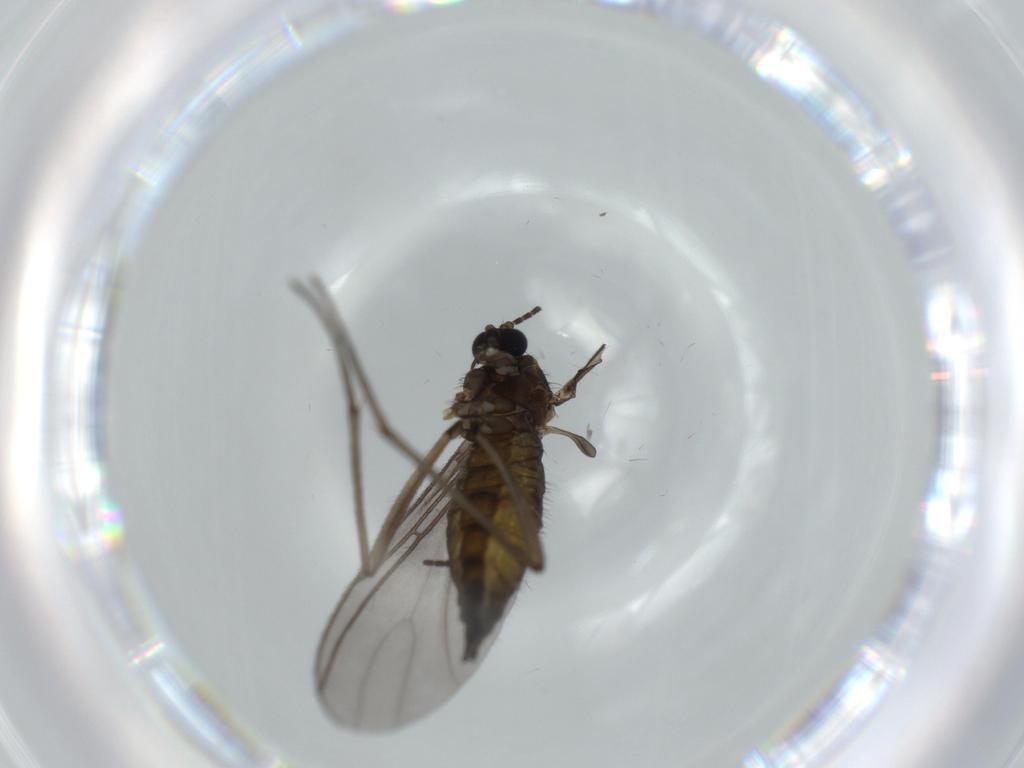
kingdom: Animalia
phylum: Arthropoda
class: Insecta
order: Diptera
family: Sciaridae
